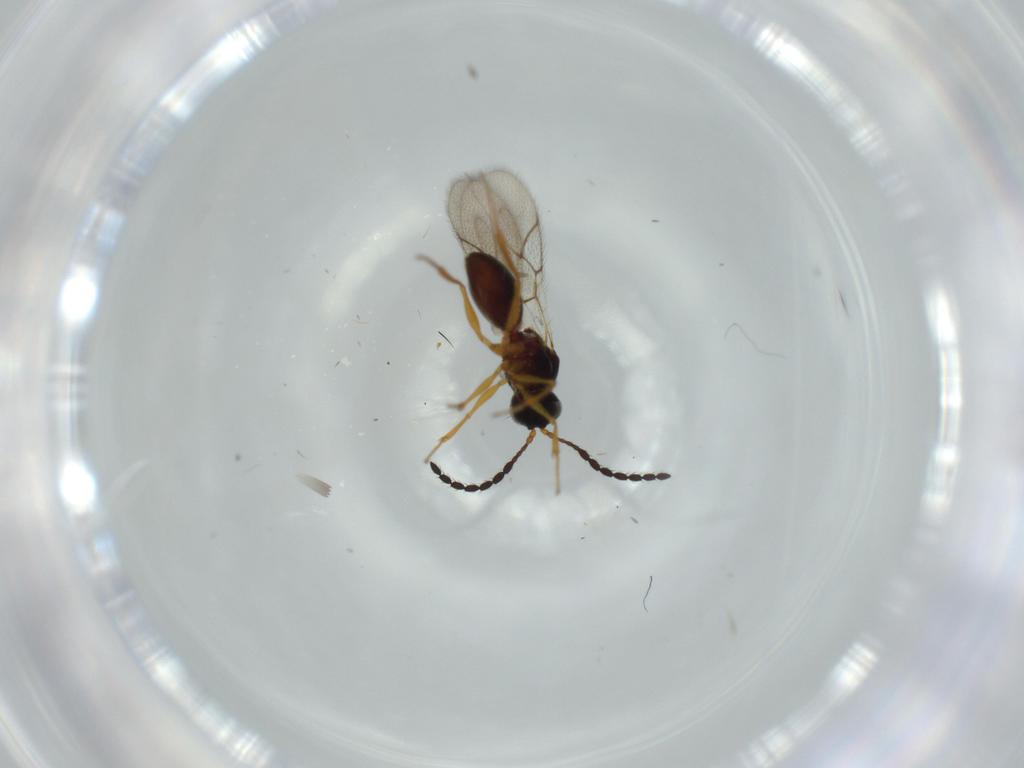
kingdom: Animalia
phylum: Arthropoda
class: Insecta
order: Hymenoptera
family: Figitidae
